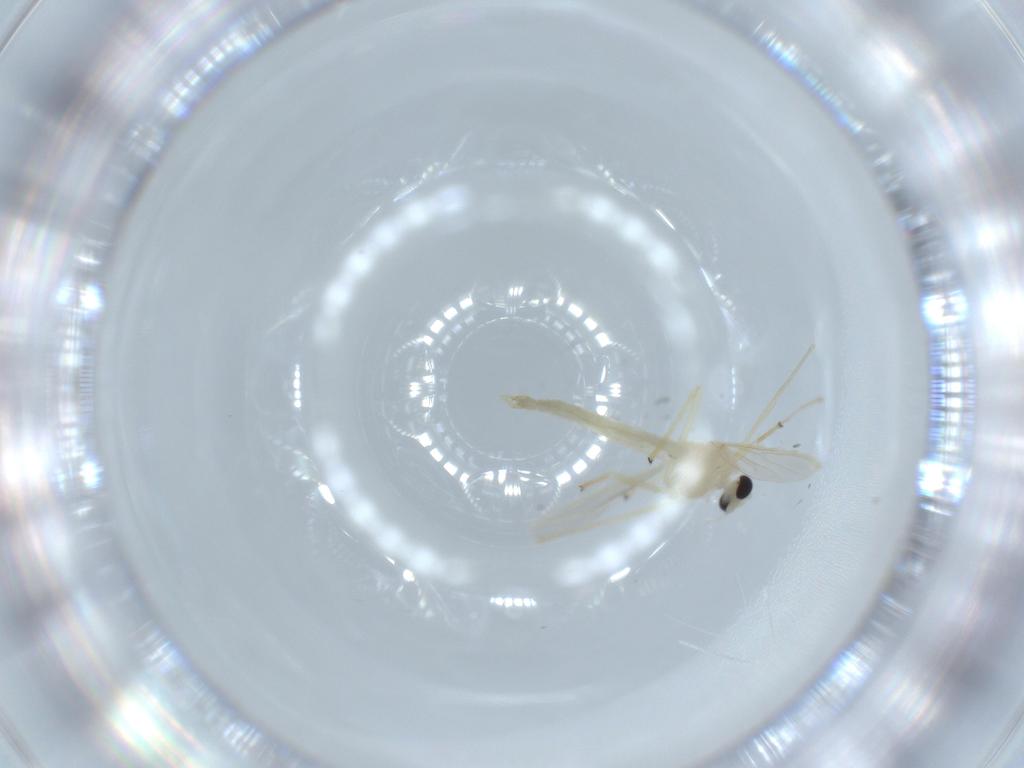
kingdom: Animalia
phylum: Arthropoda
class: Insecta
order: Diptera
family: Chironomidae
